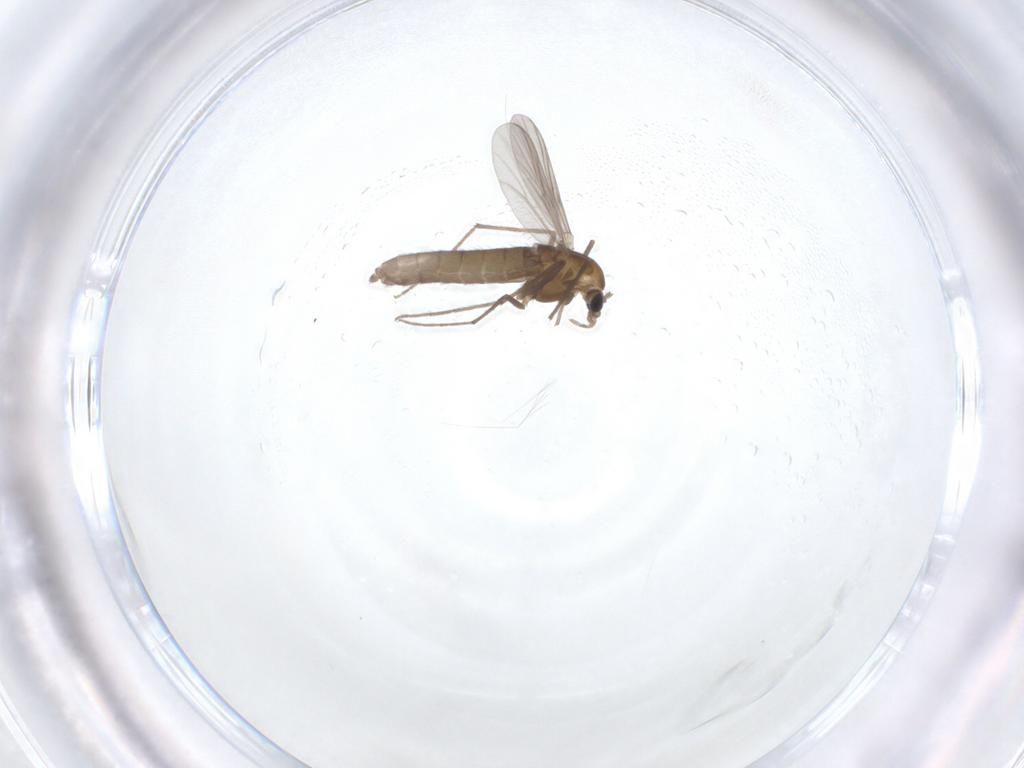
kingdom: Animalia
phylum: Arthropoda
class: Insecta
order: Diptera
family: Chironomidae
